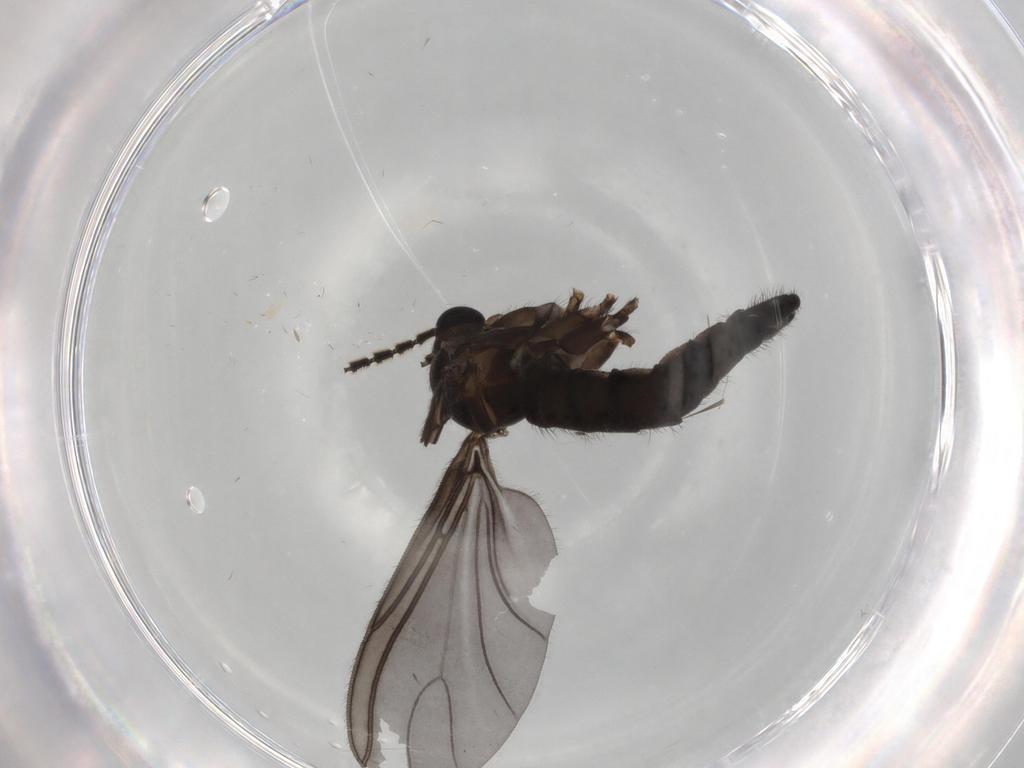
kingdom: Animalia
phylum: Arthropoda
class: Insecta
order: Diptera
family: Chironomidae
